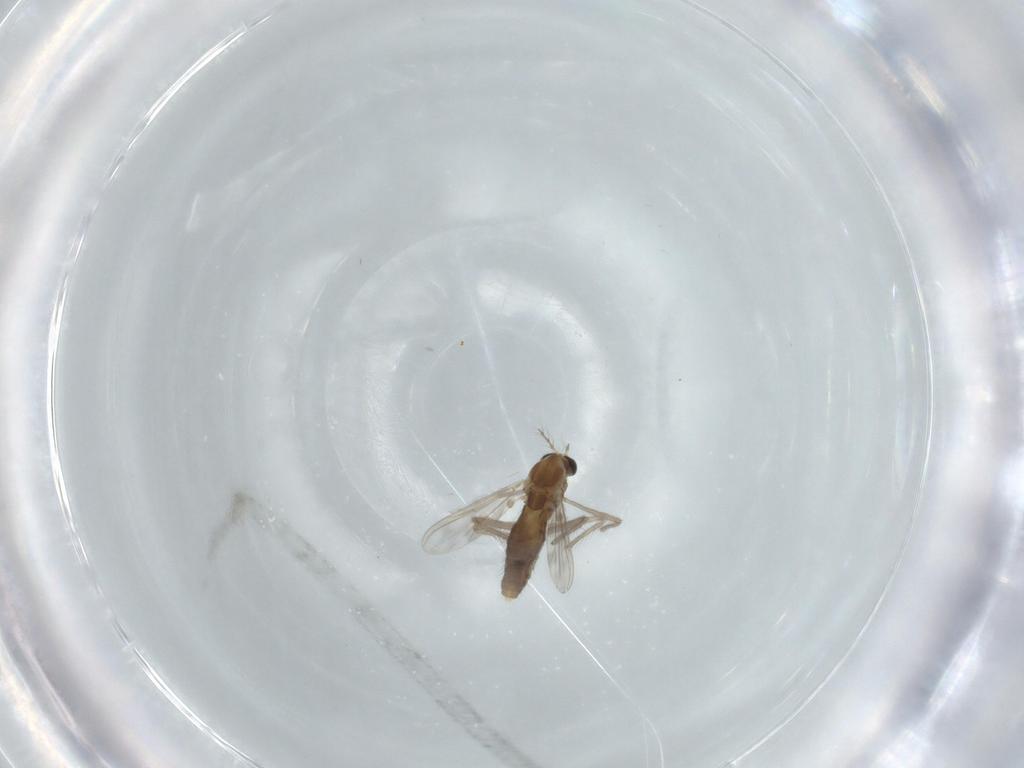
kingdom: Animalia
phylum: Arthropoda
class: Insecta
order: Diptera
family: Chironomidae
